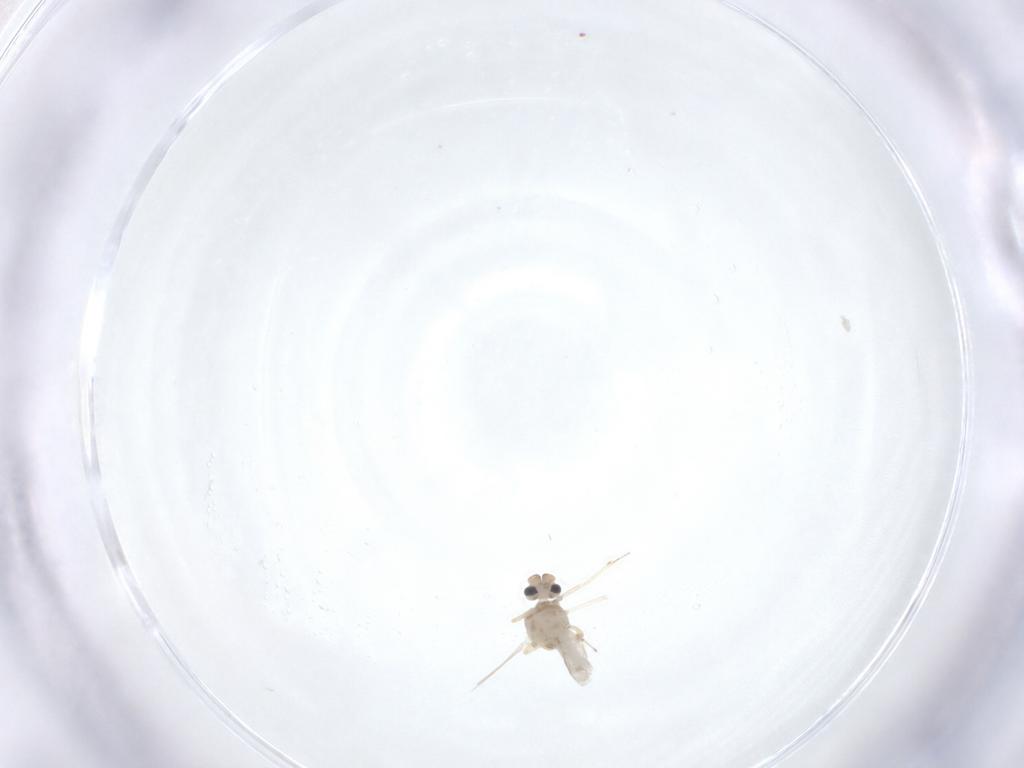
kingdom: Animalia
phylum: Arthropoda
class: Insecta
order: Diptera
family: Ceratopogonidae
